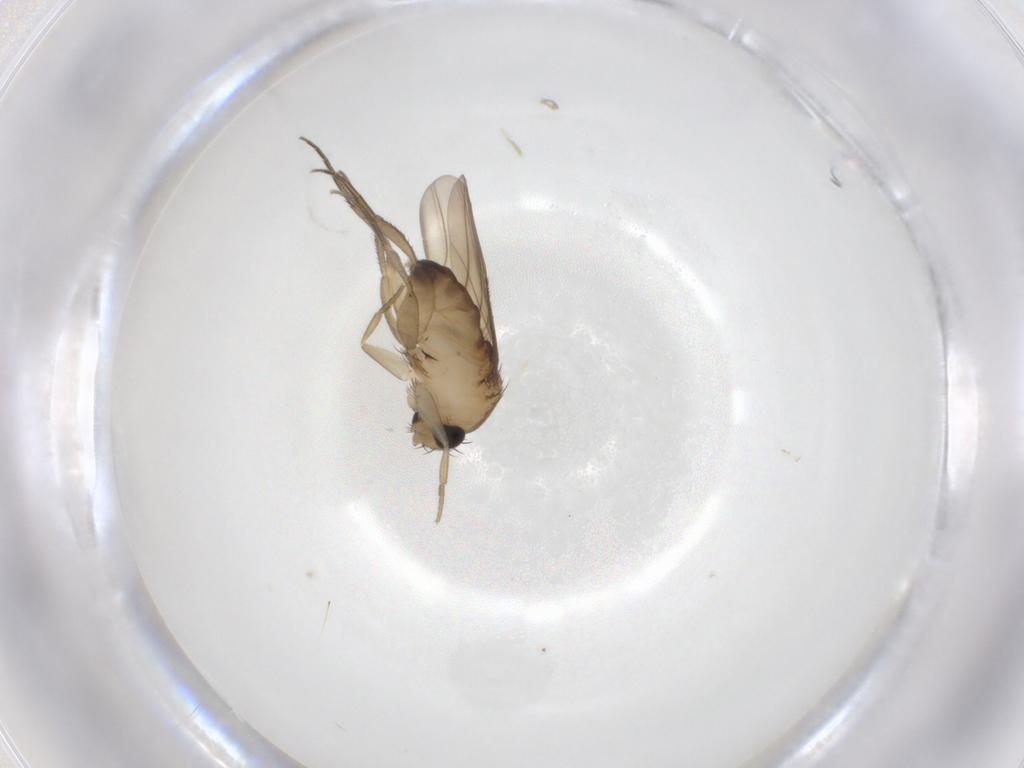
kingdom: Animalia
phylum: Arthropoda
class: Insecta
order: Diptera
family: Phoridae
